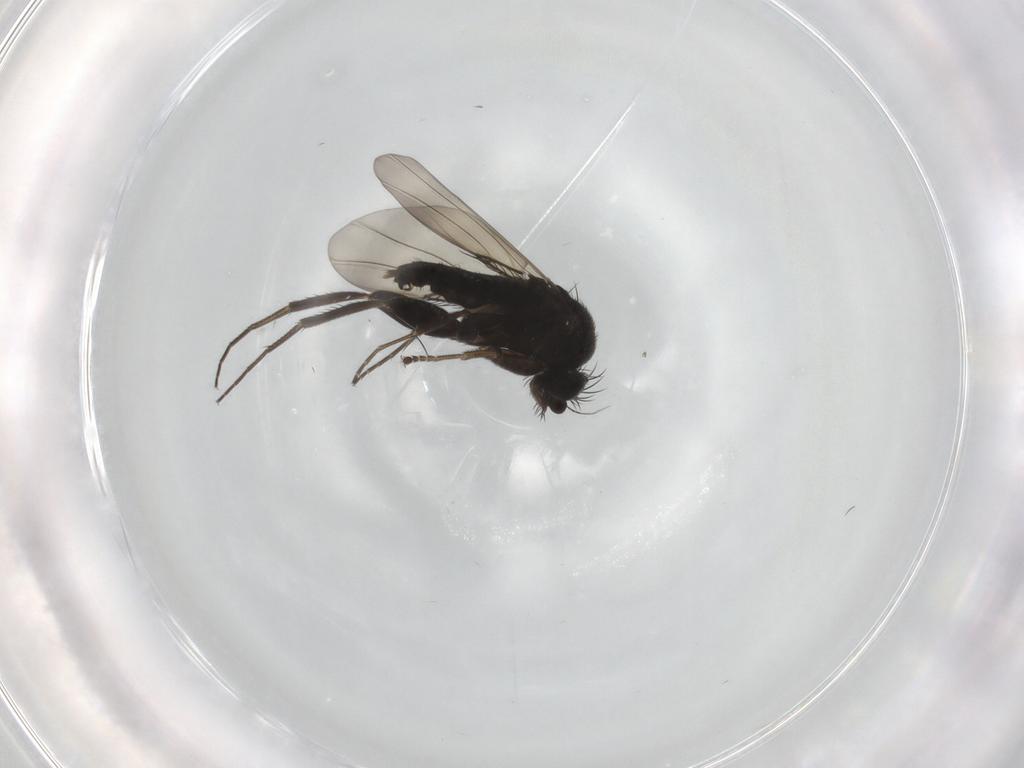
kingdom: Animalia
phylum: Arthropoda
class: Insecta
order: Diptera
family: Phoridae
